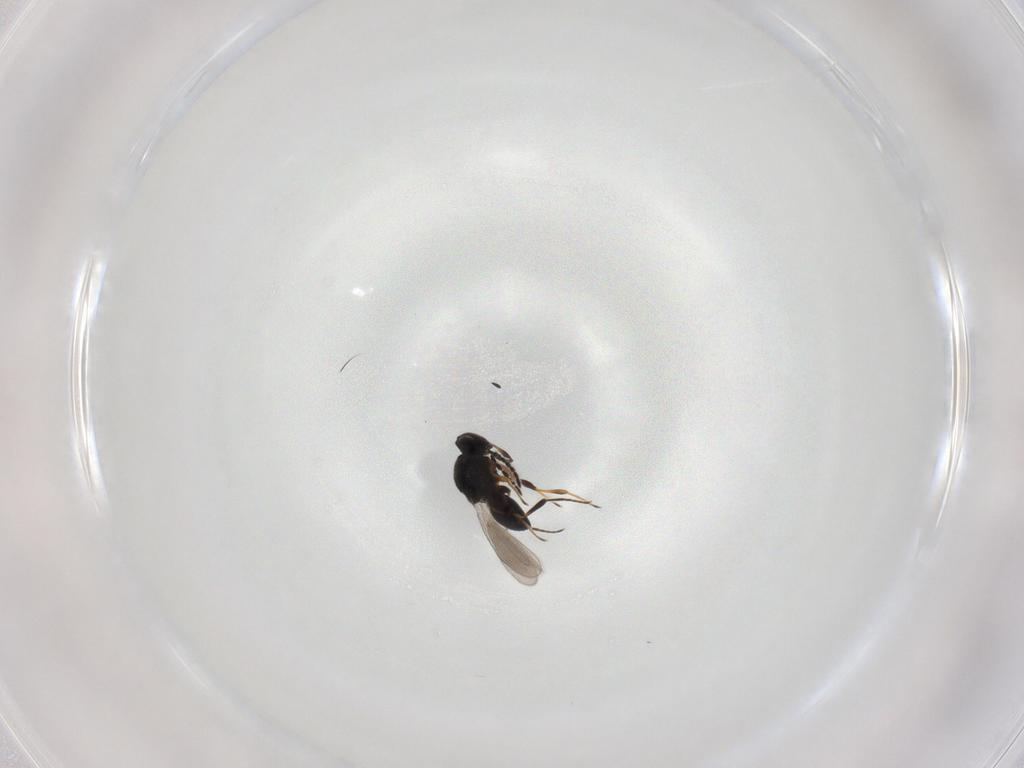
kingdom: Animalia
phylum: Arthropoda
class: Insecta
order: Hymenoptera
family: Platygastridae
